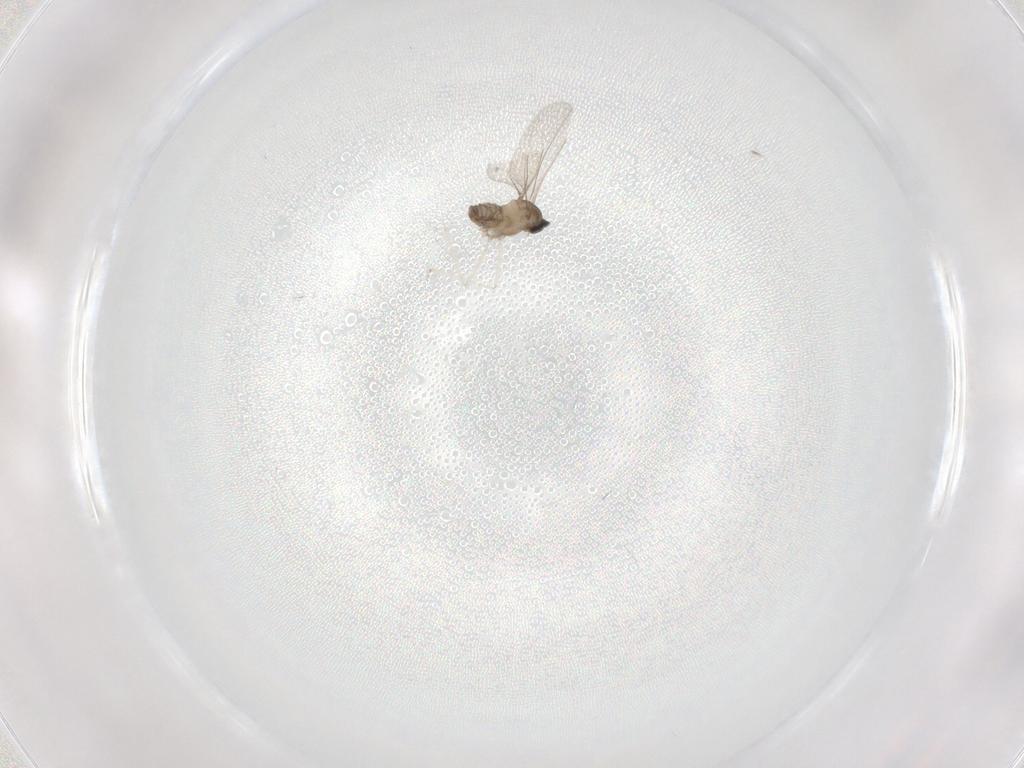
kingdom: Animalia
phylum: Arthropoda
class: Insecta
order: Diptera
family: Cecidomyiidae
